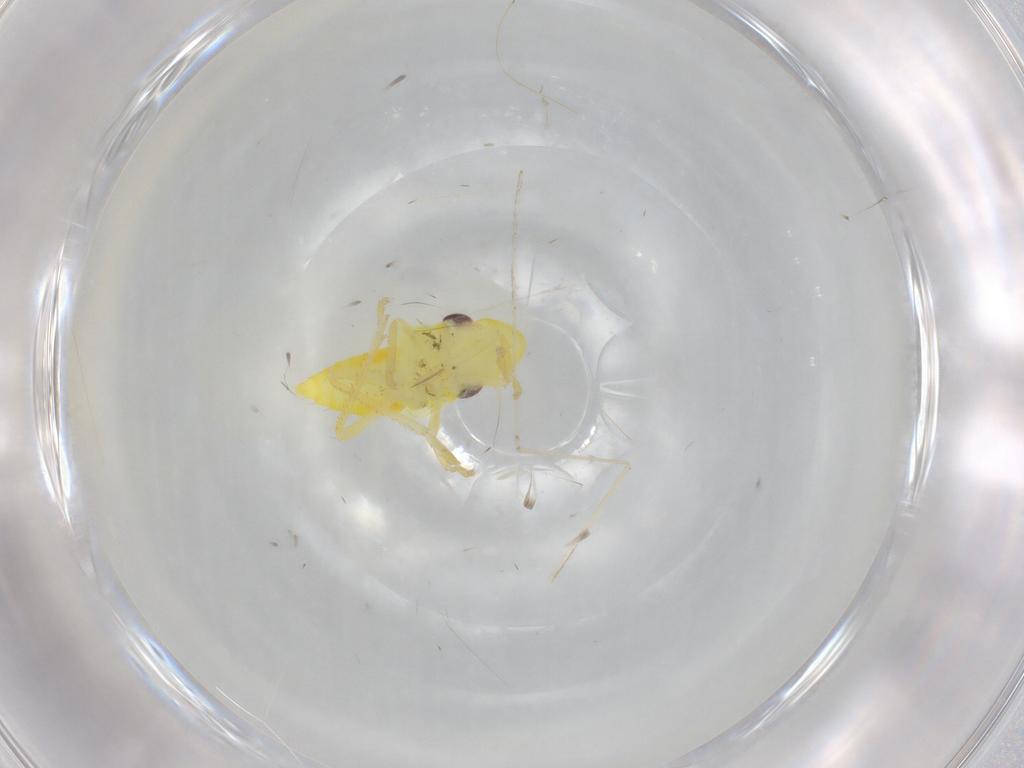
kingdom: Animalia
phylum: Arthropoda
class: Insecta
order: Hemiptera
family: Cicadellidae
